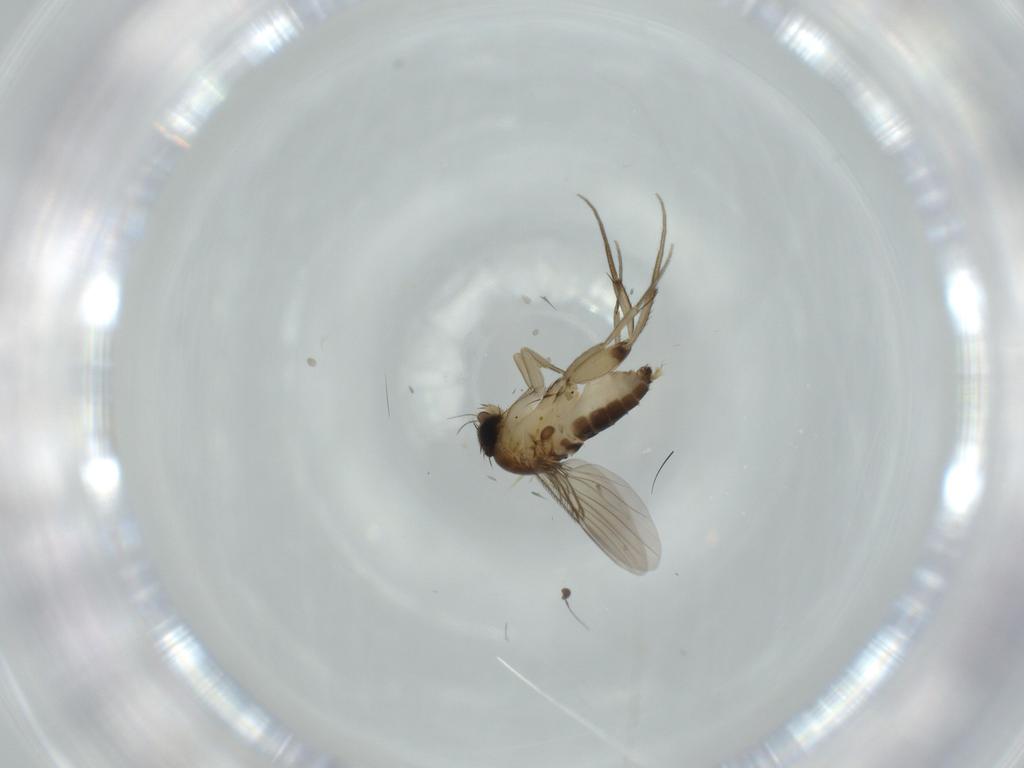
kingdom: Animalia
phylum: Arthropoda
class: Insecta
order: Diptera
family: Phoridae
